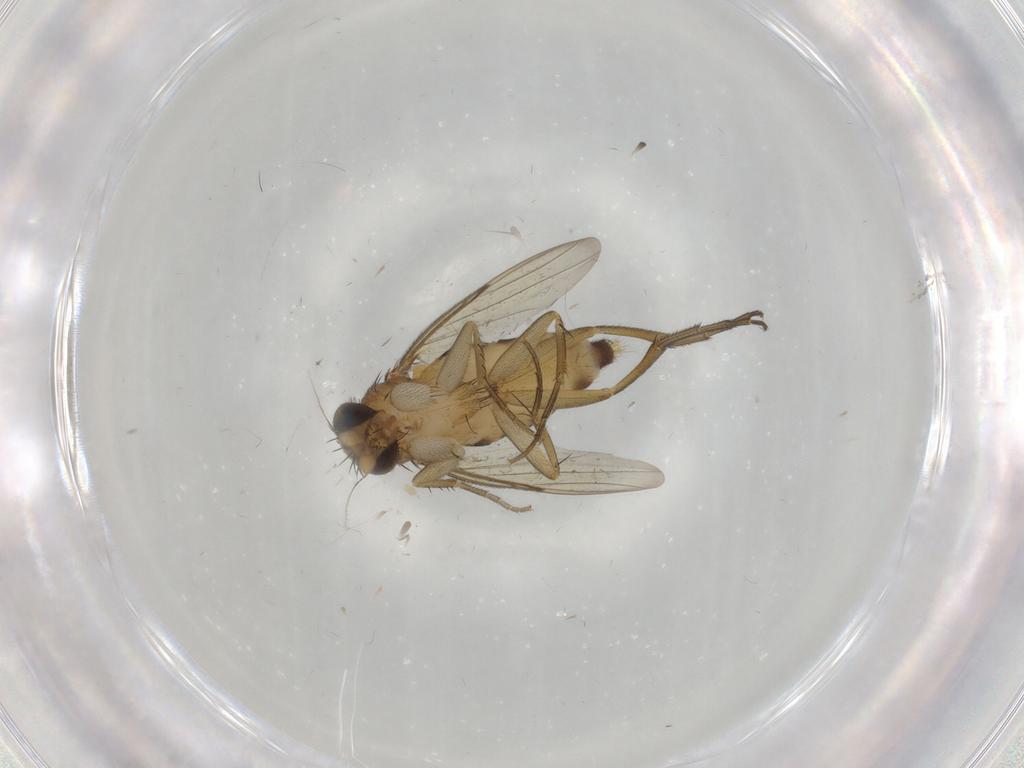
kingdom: Animalia
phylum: Arthropoda
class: Insecta
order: Diptera
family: Phoridae
